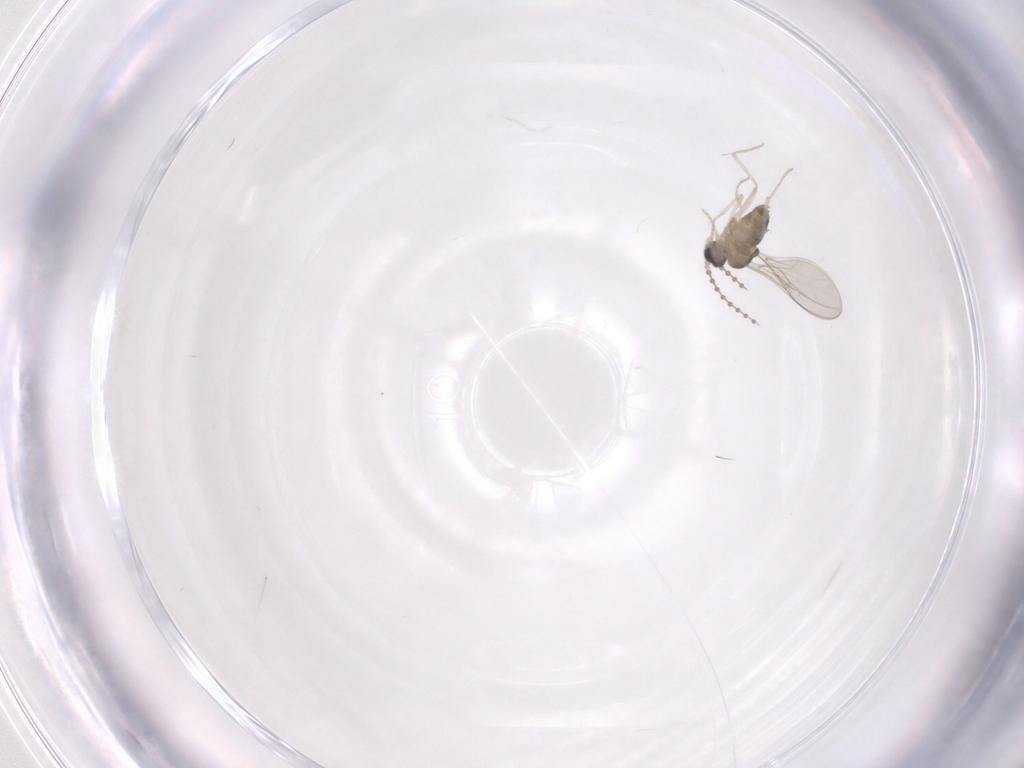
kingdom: Animalia
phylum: Arthropoda
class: Insecta
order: Diptera
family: Cecidomyiidae
